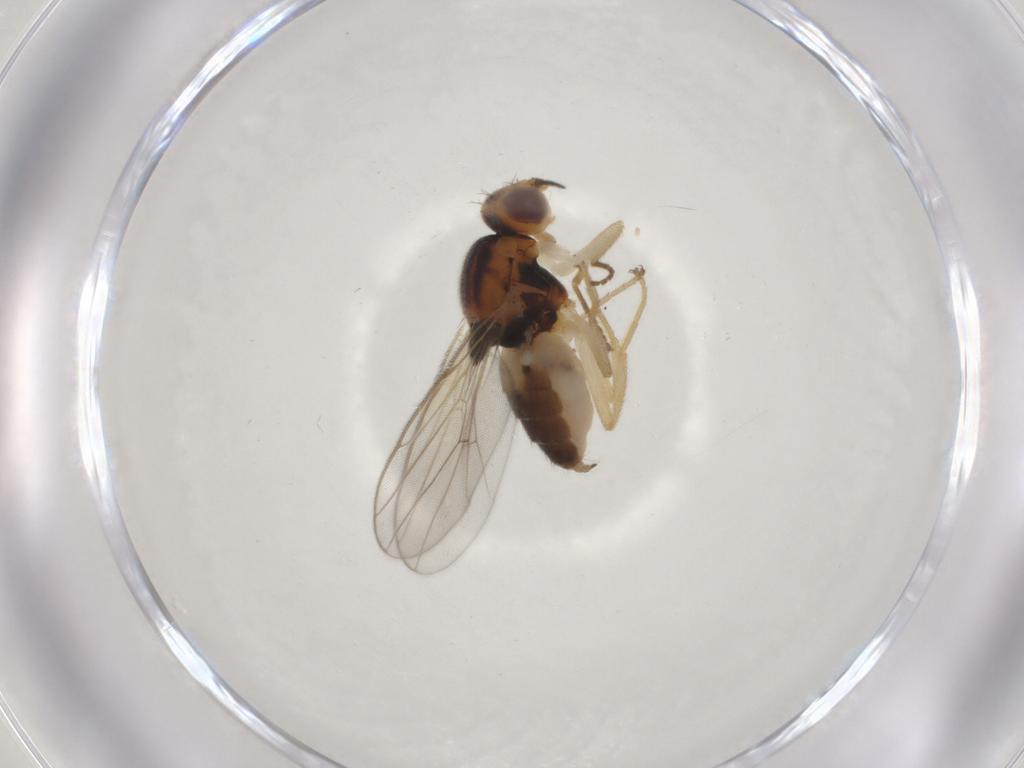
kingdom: Animalia
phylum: Arthropoda
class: Insecta
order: Diptera
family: Chloropidae
